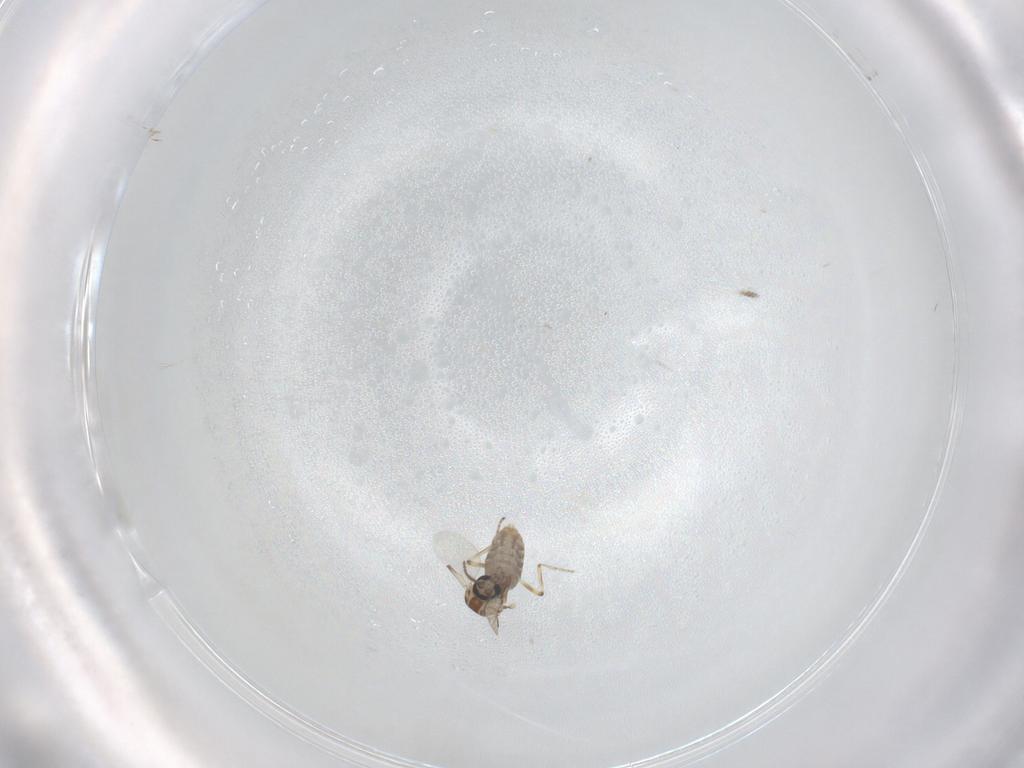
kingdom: Animalia
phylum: Arthropoda
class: Insecta
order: Diptera
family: Ceratopogonidae
